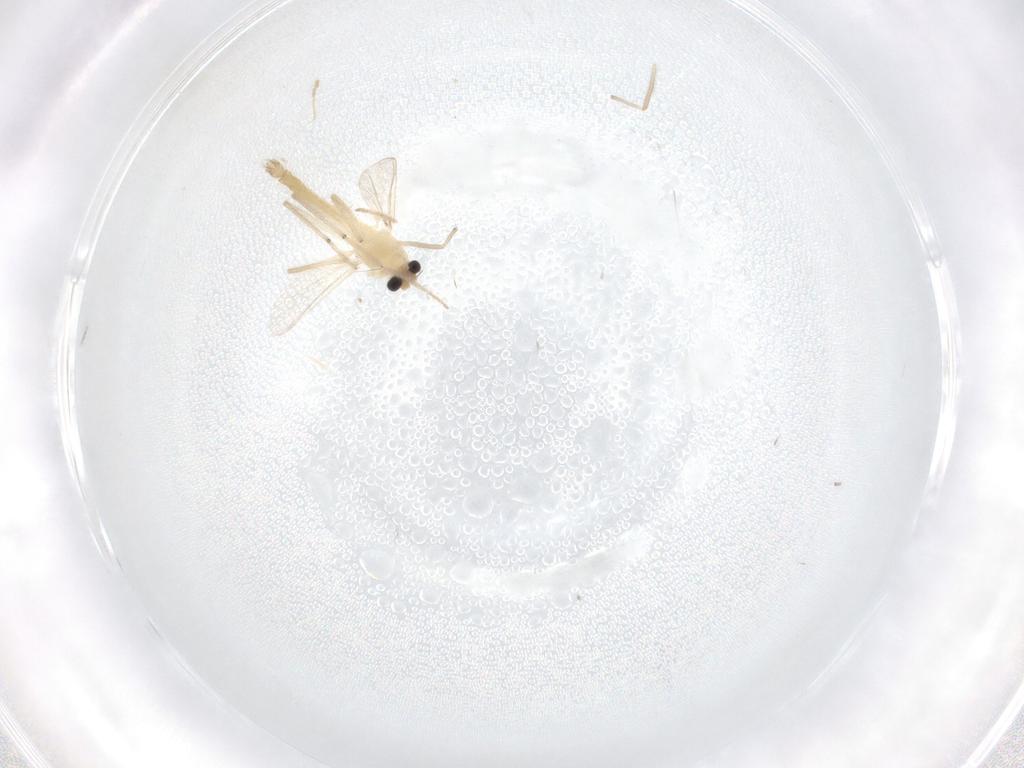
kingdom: Animalia
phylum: Arthropoda
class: Insecta
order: Diptera
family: Chironomidae
